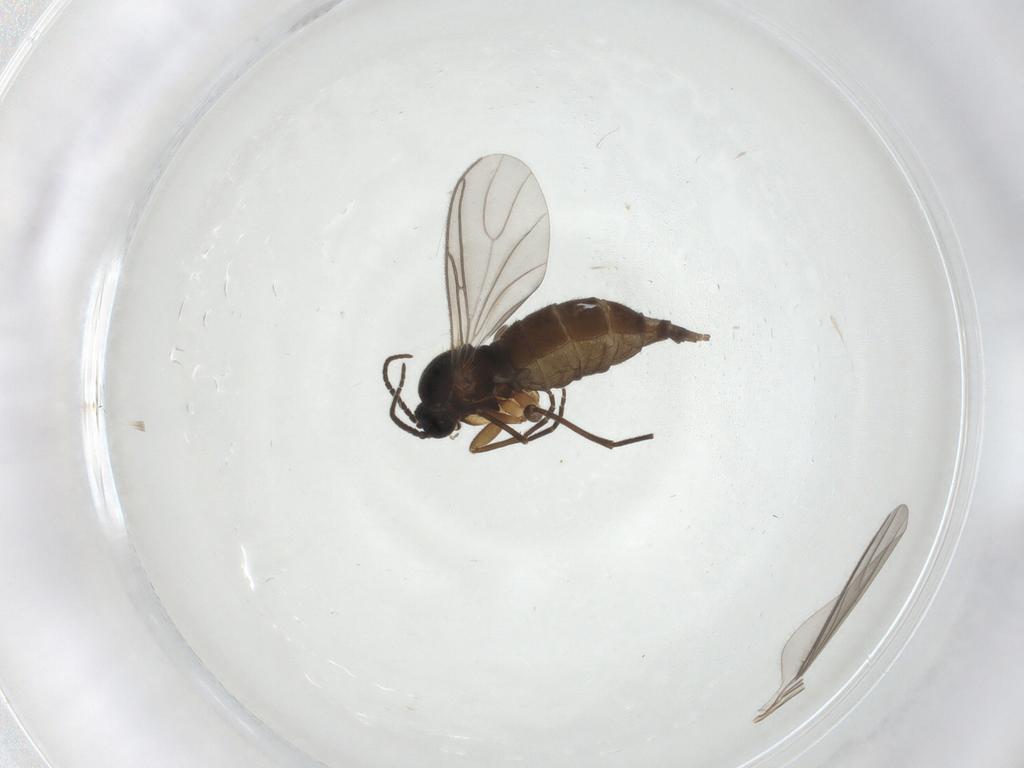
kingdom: Animalia
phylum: Arthropoda
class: Insecta
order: Diptera
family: Sciaridae
